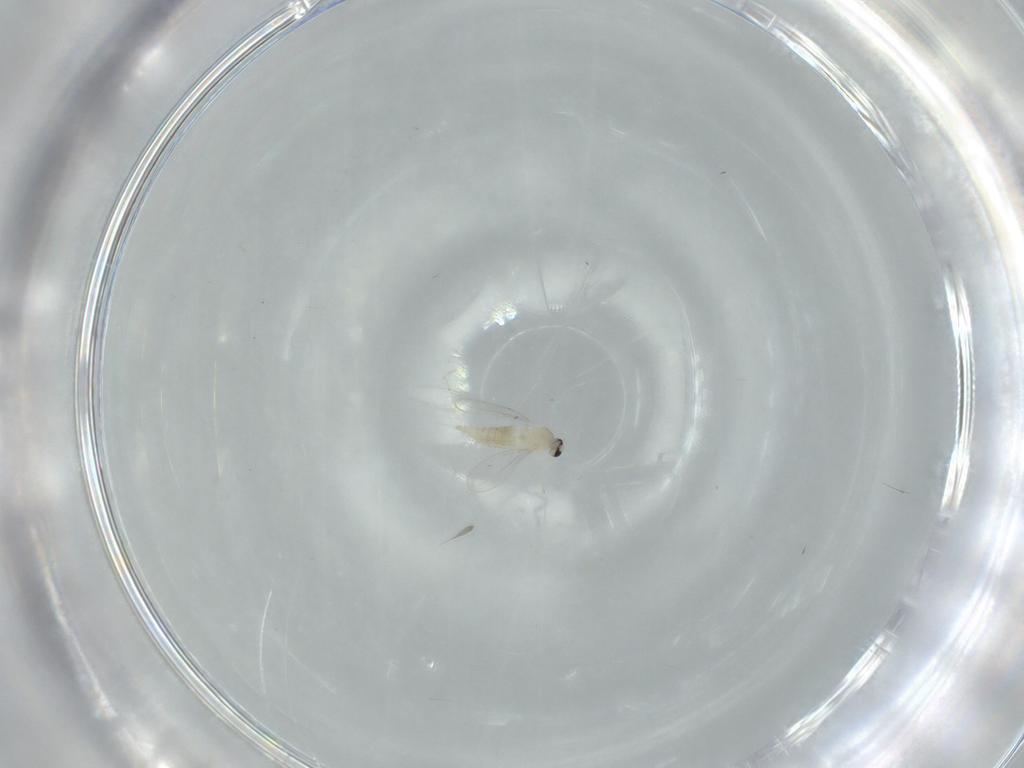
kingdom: Animalia
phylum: Arthropoda
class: Insecta
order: Diptera
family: Cecidomyiidae
